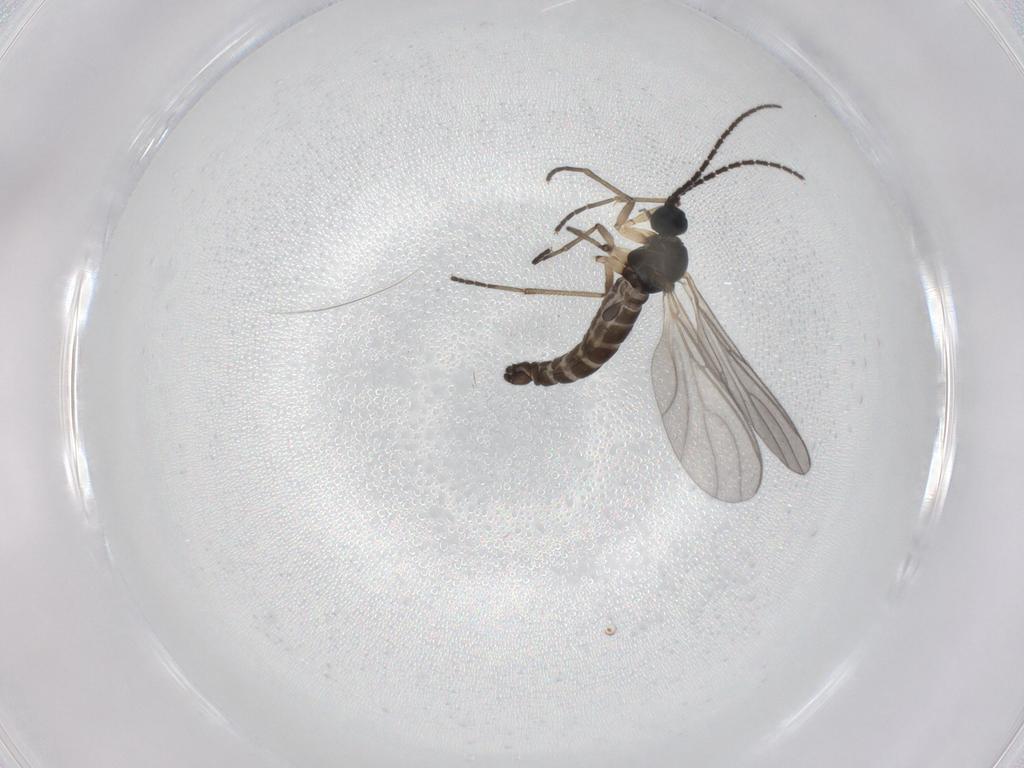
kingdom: Animalia
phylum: Arthropoda
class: Insecta
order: Diptera
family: Sciaridae
